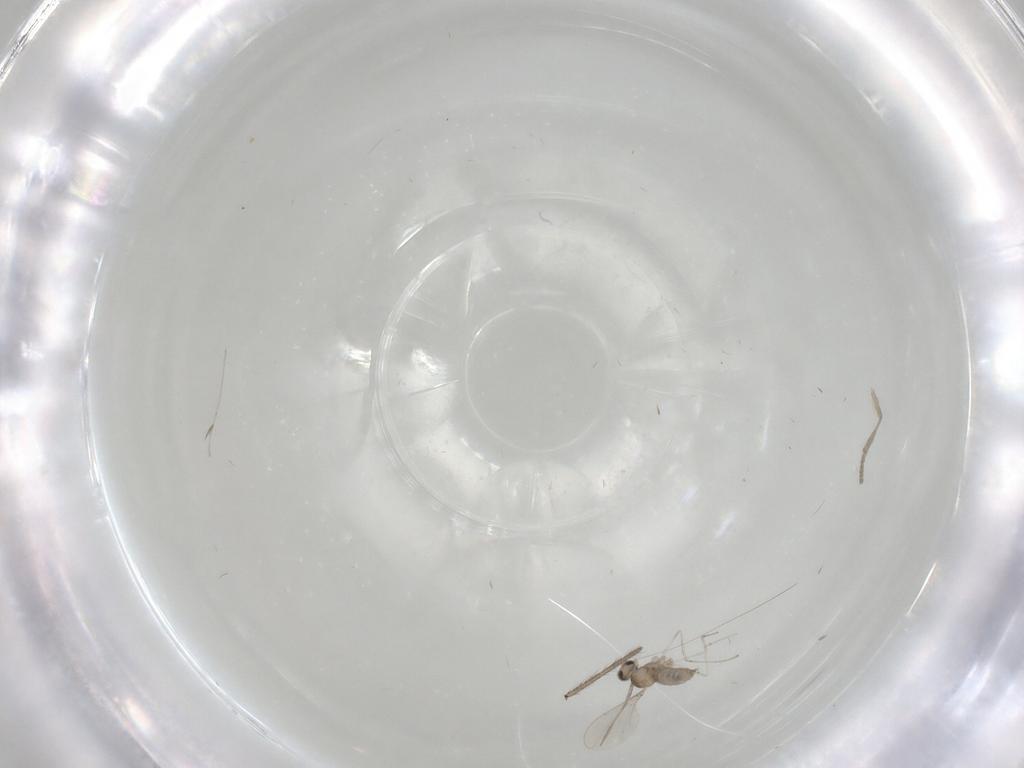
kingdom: Animalia
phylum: Arthropoda
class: Insecta
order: Diptera
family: Cecidomyiidae
